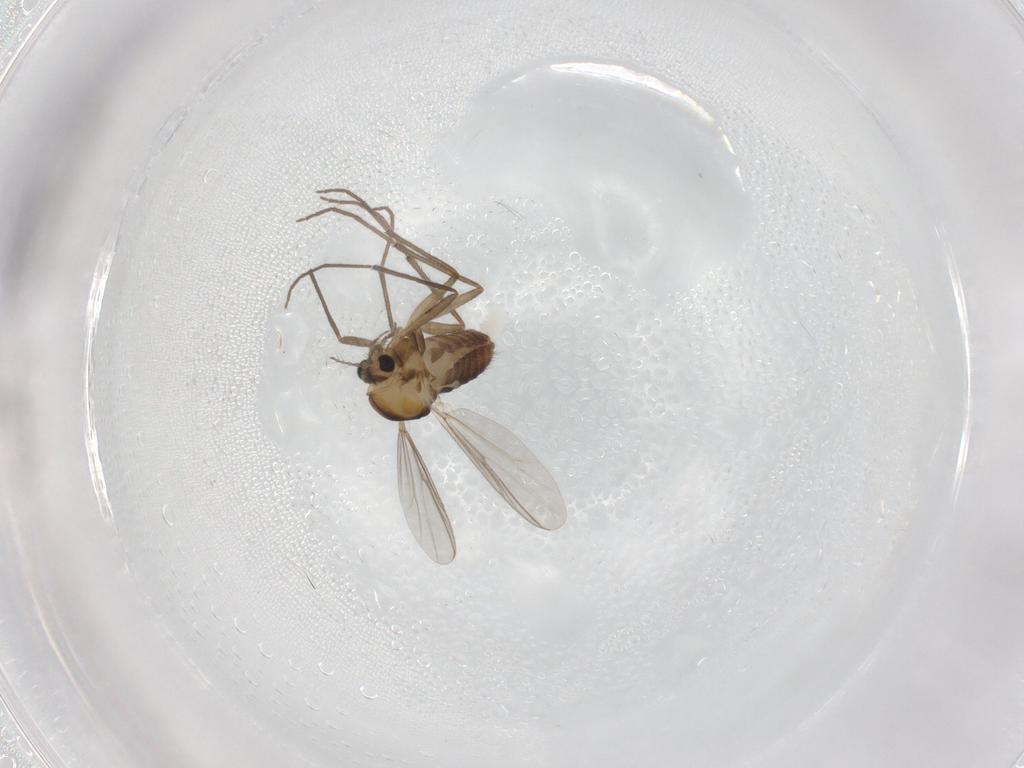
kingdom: Animalia
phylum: Arthropoda
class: Insecta
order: Diptera
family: Chironomidae
